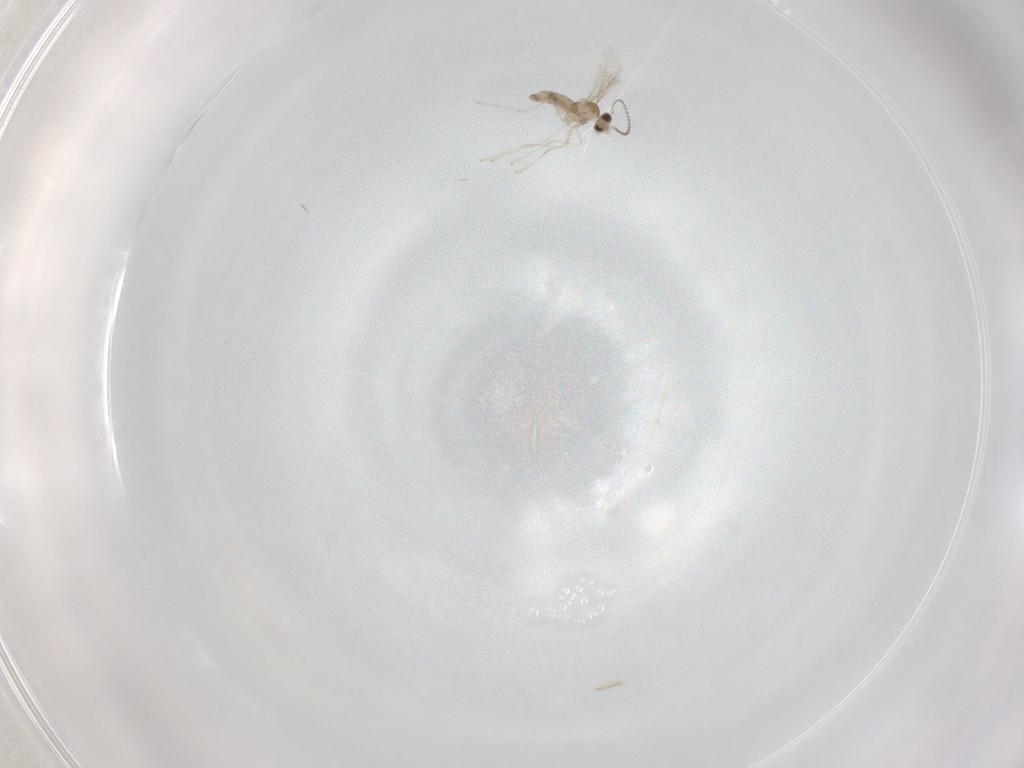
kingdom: Animalia
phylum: Arthropoda
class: Insecta
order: Diptera
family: Cecidomyiidae
